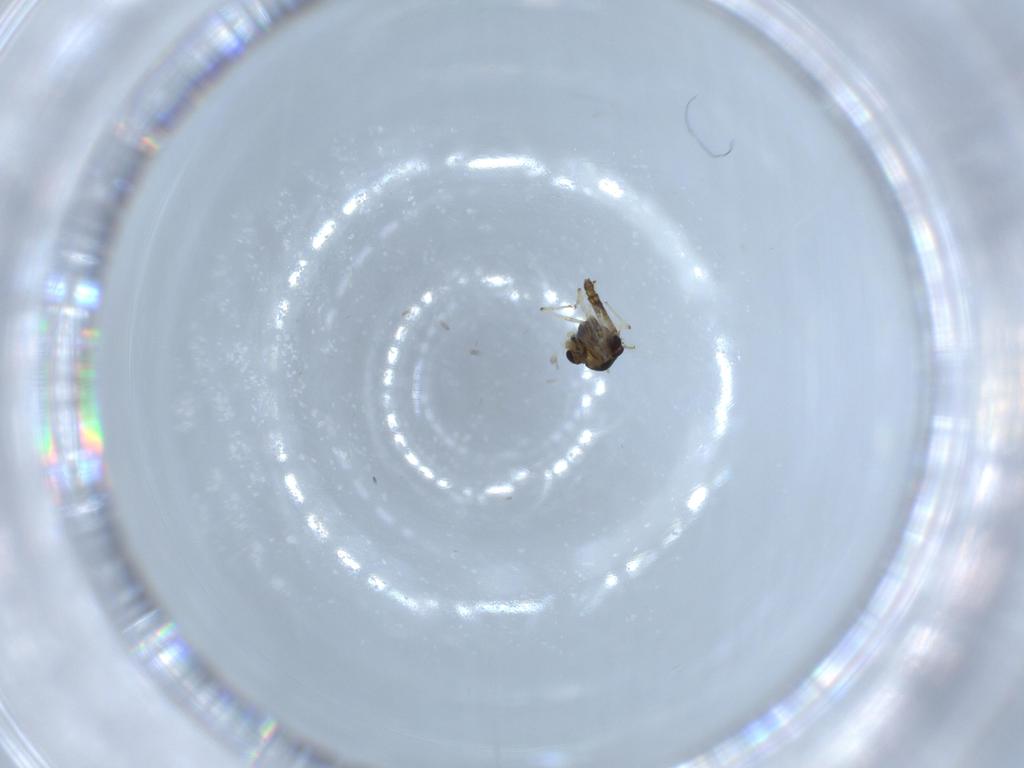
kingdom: Animalia
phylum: Arthropoda
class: Insecta
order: Diptera
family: Chironomidae
